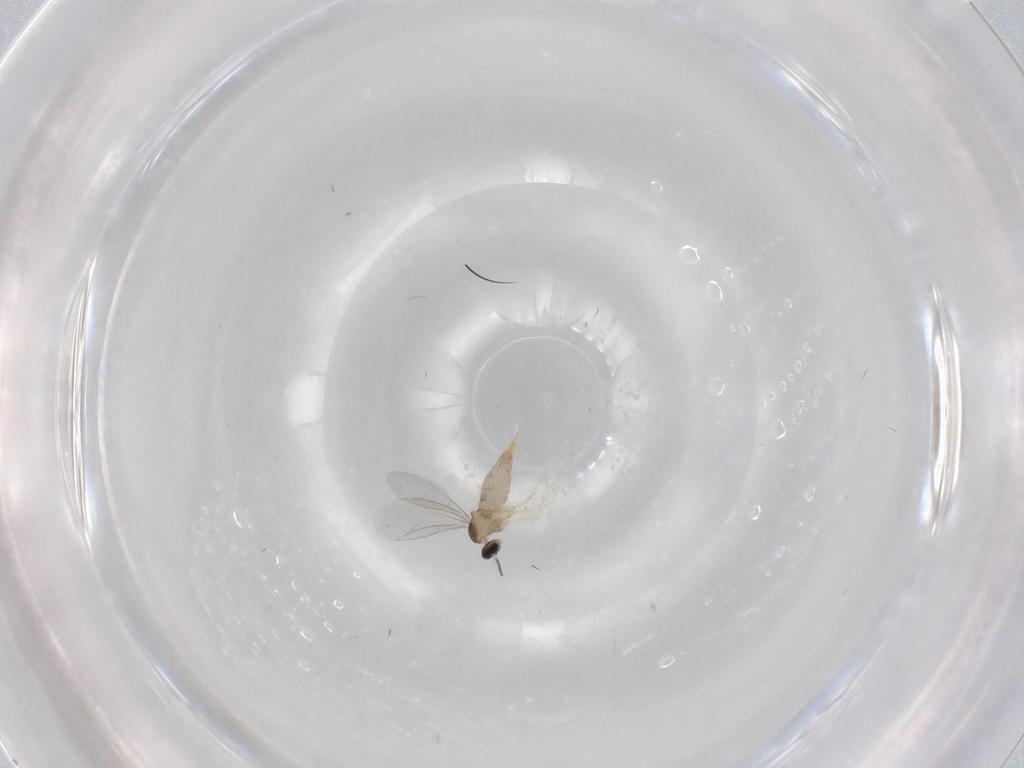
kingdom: Animalia
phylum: Arthropoda
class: Insecta
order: Diptera
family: Cecidomyiidae
